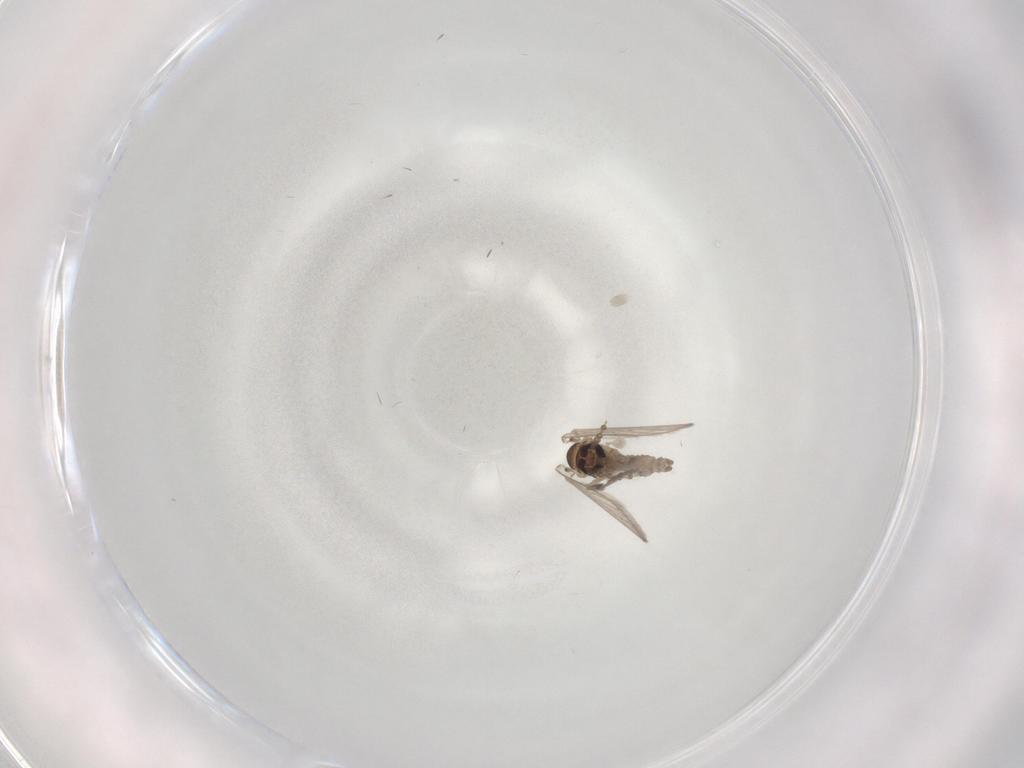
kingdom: Animalia
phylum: Arthropoda
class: Insecta
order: Diptera
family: Psychodidae
